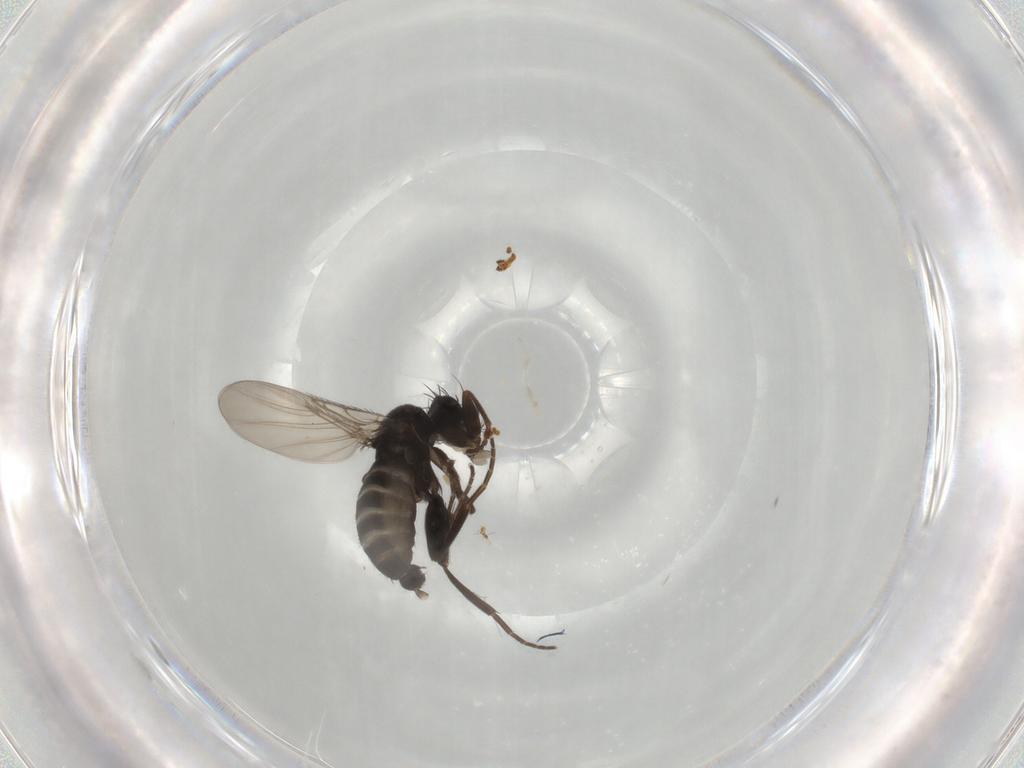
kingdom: Animalia
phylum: Arthropoda
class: Insecta
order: Diptera
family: Phoridae
